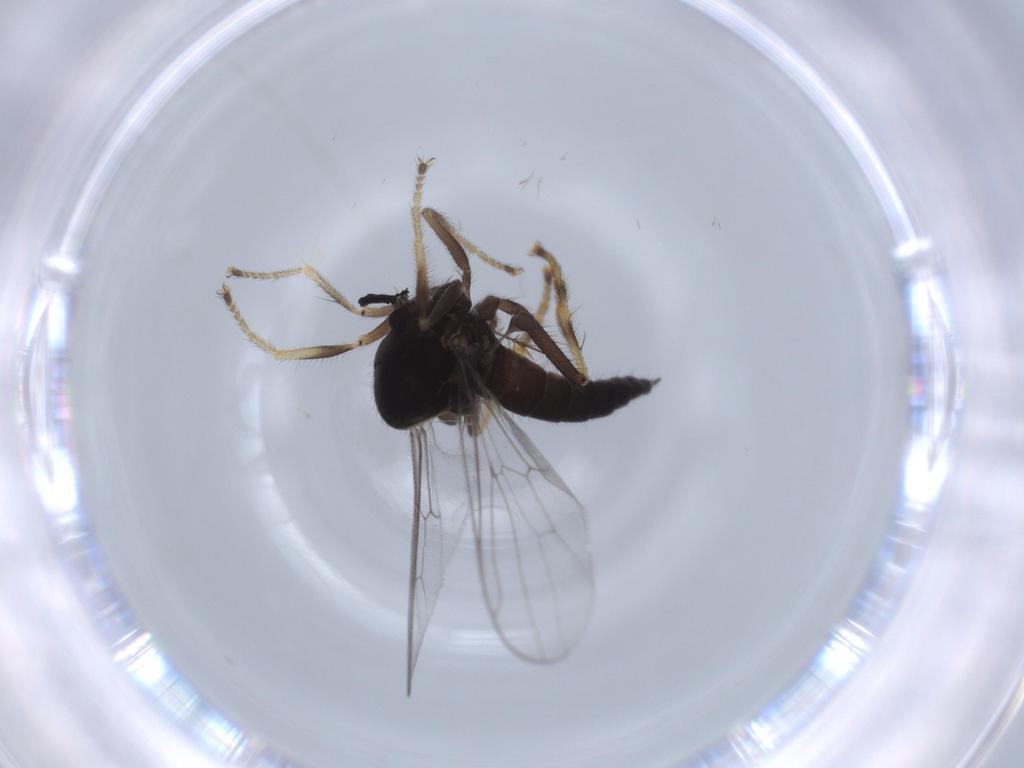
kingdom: Animalia
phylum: Arthropoda
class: Insecta
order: Diptera
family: Hybotidae
